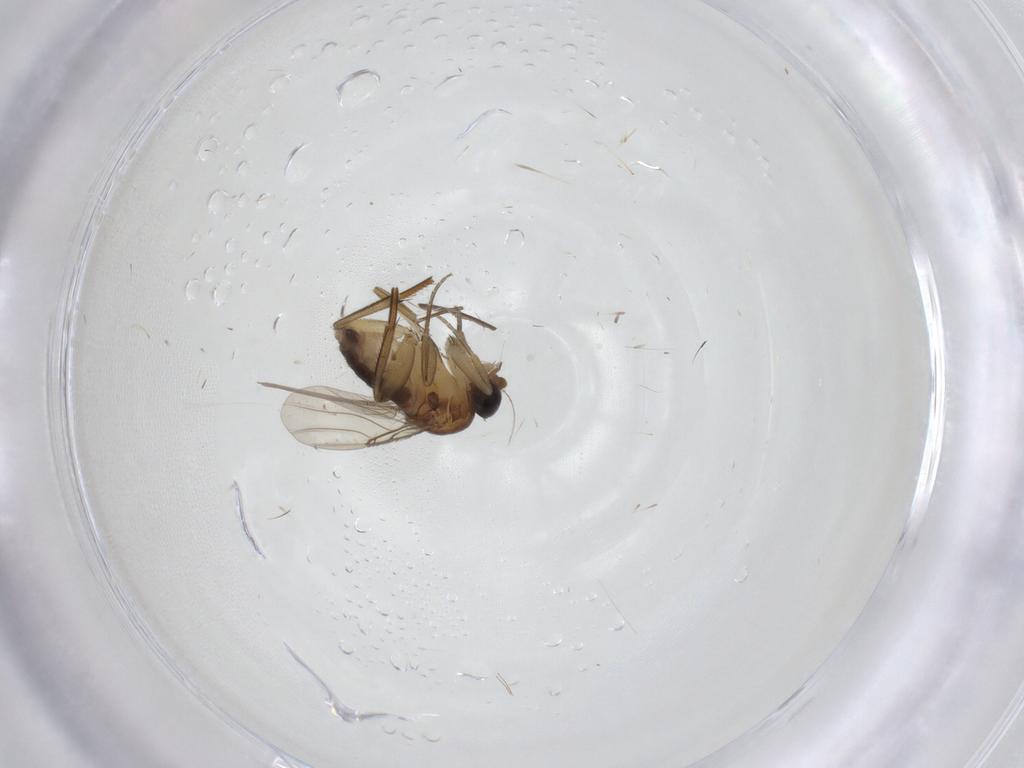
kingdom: Animalia
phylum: Arthropoda
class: Insecta
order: Diptera
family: Phoridae
